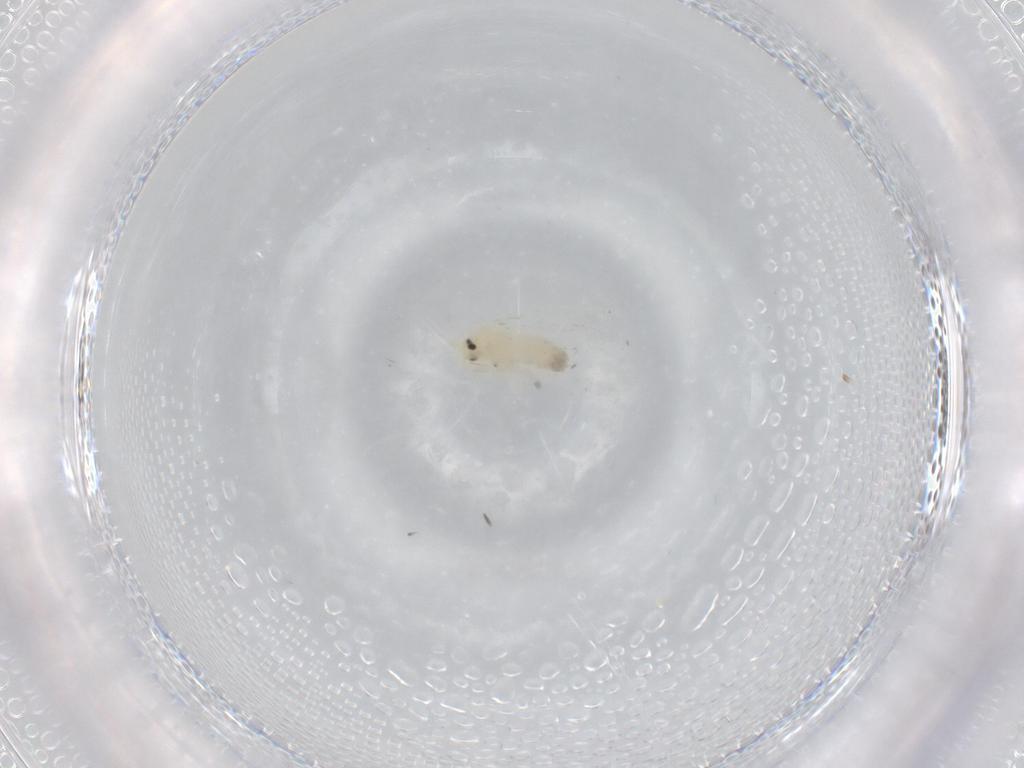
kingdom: Animalia
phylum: Arthropoda
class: Insecta
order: Hemiptera
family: Aleyrodidae
